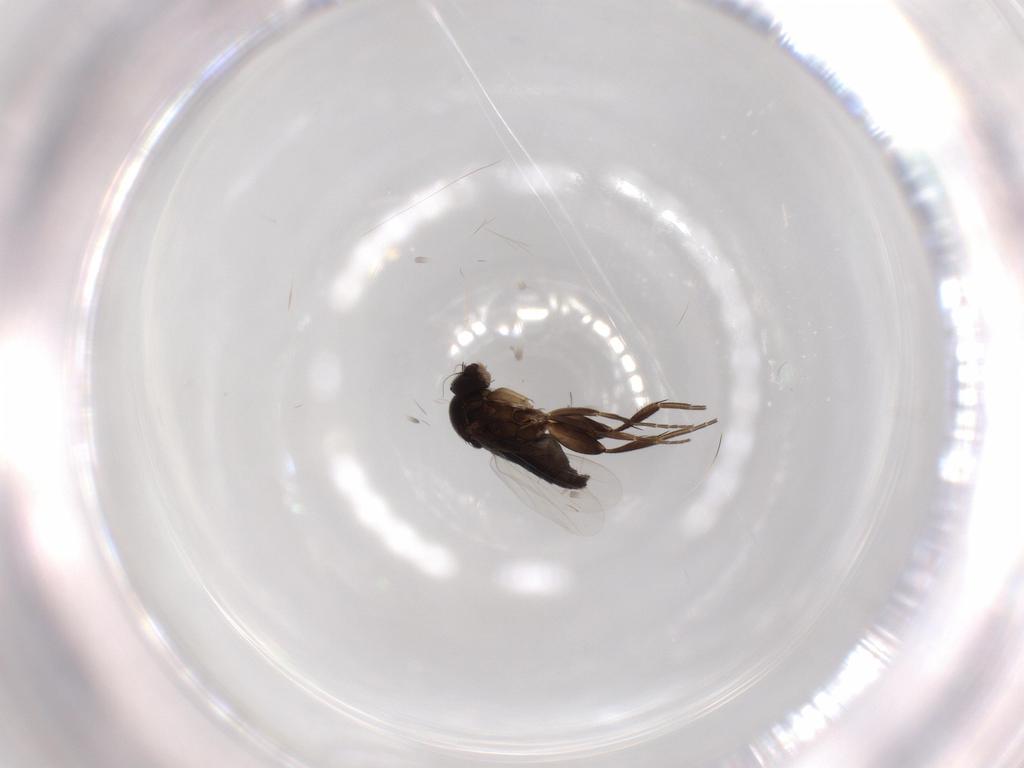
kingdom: Animalia
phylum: Arthropoda
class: Insecta
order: Diptera
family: Phoridae
